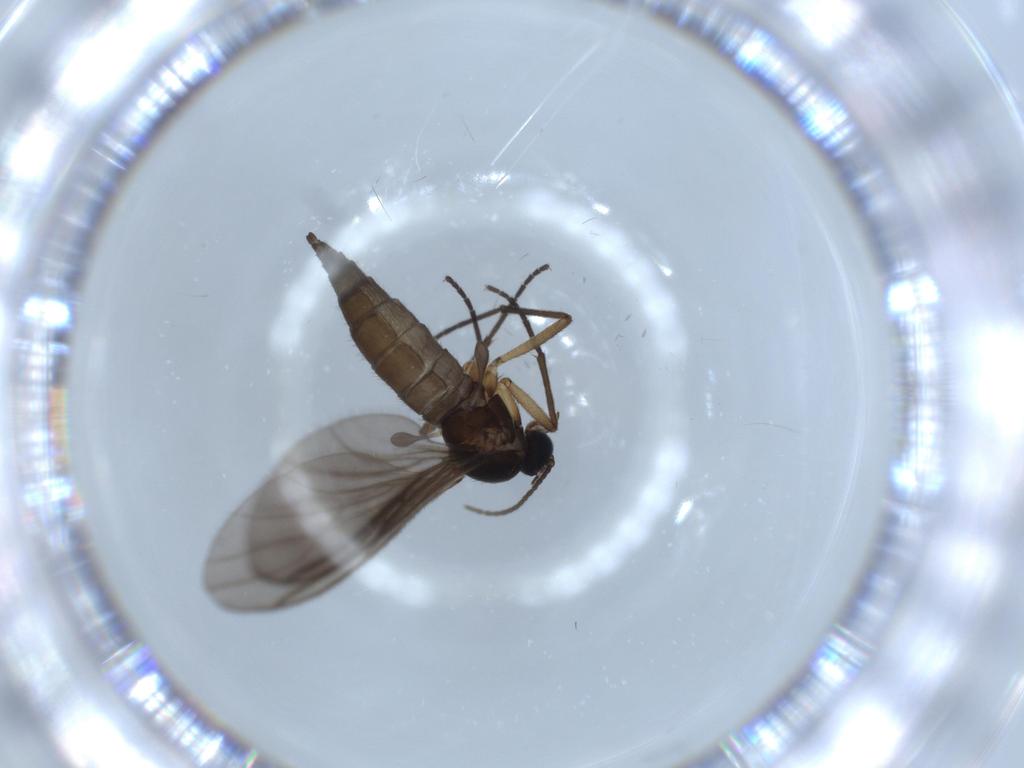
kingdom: Animalia
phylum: Arthropoda
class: Insecta
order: Diptera
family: Sciaridae
